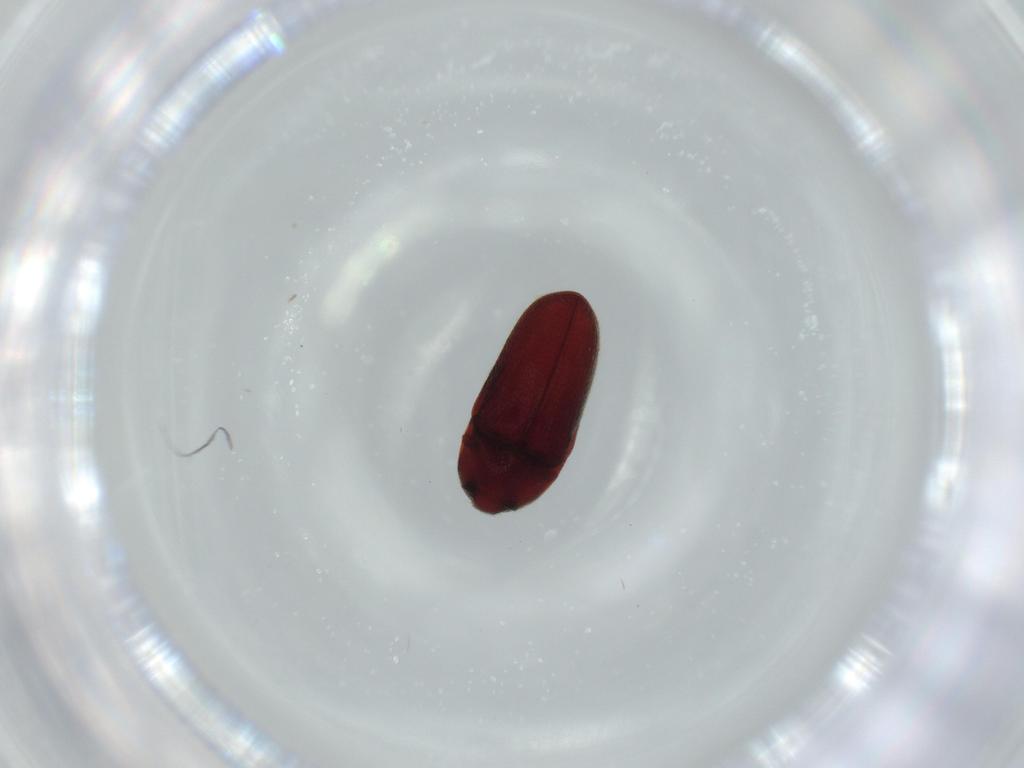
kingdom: Animalia
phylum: Arthropoda
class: Insecta
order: Coleoptera
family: Throscidae
